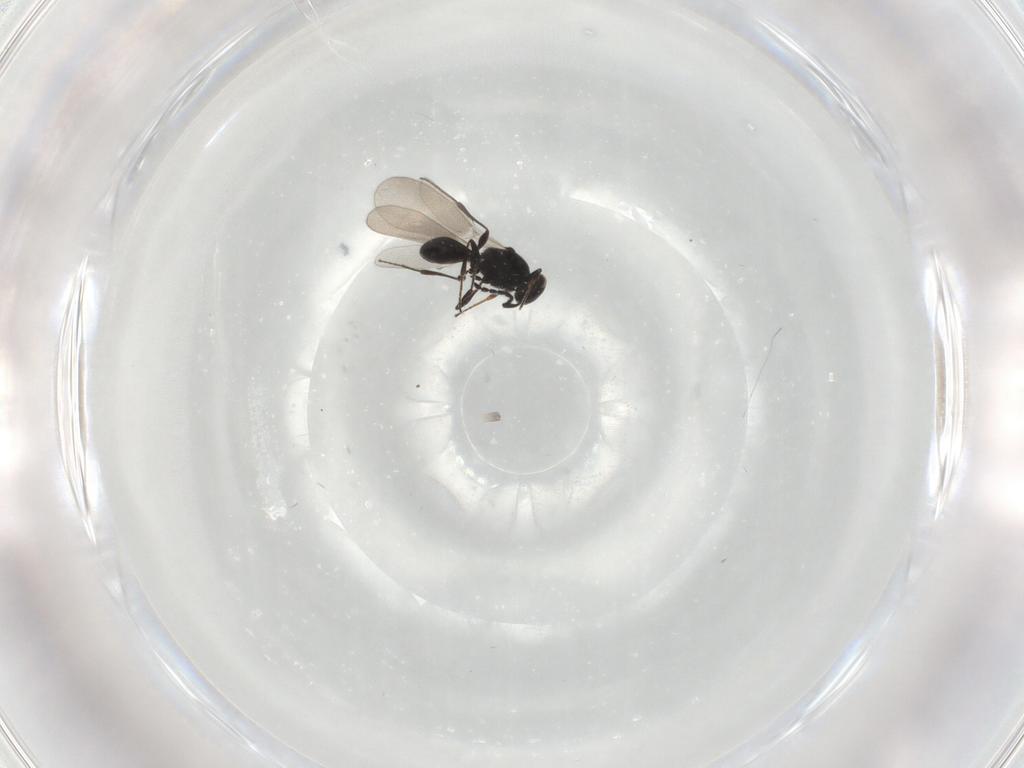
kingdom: Animalia
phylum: Arthropoda
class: Insecta
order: Hymenoptera
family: Platygastridae
